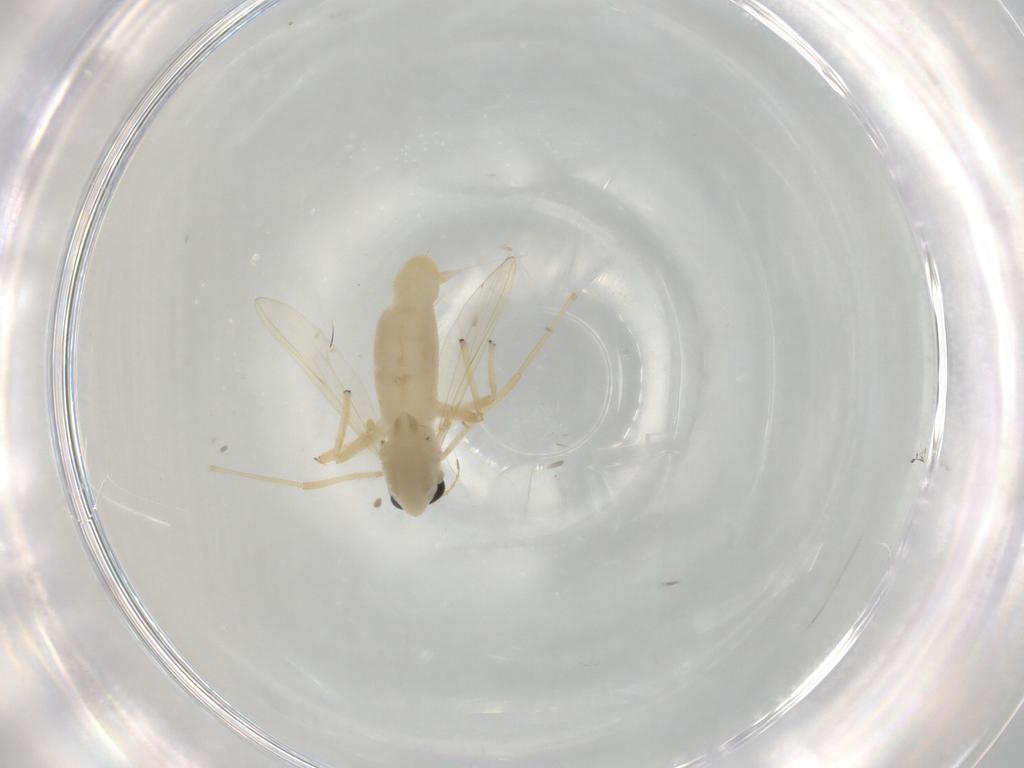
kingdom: Animalia
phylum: Arthropoda
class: Insecta
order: Diptera
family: Chironomidae
